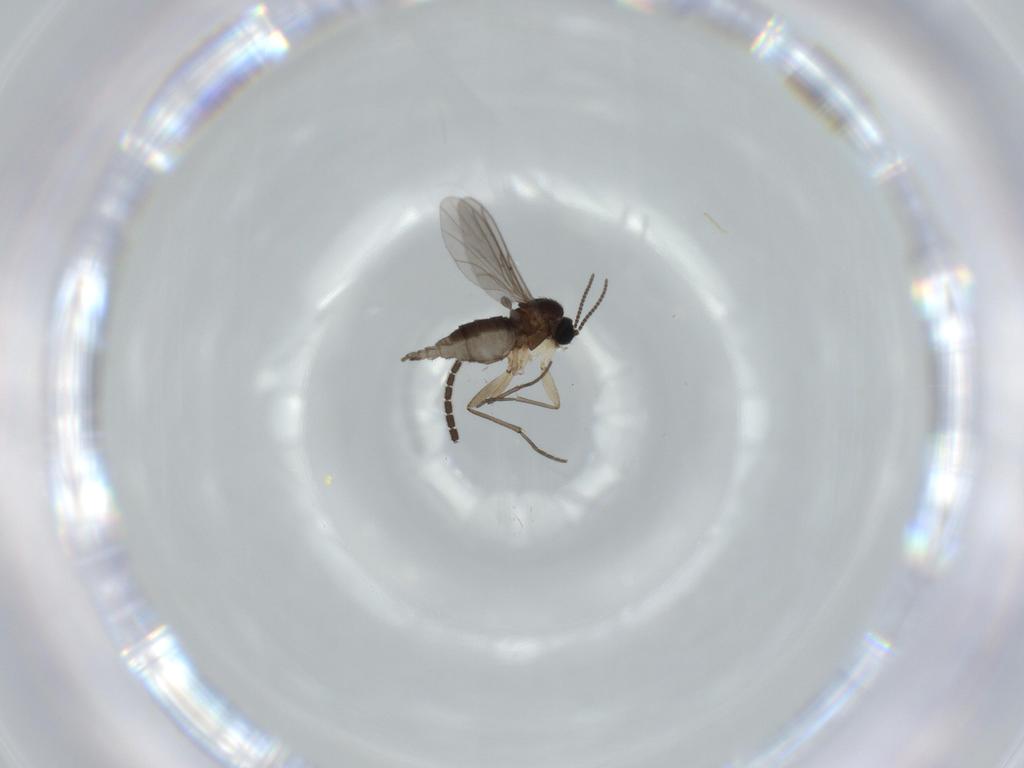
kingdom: Animalia
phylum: Arthropoda
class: Insecta
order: Diptera
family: Sciaridae
